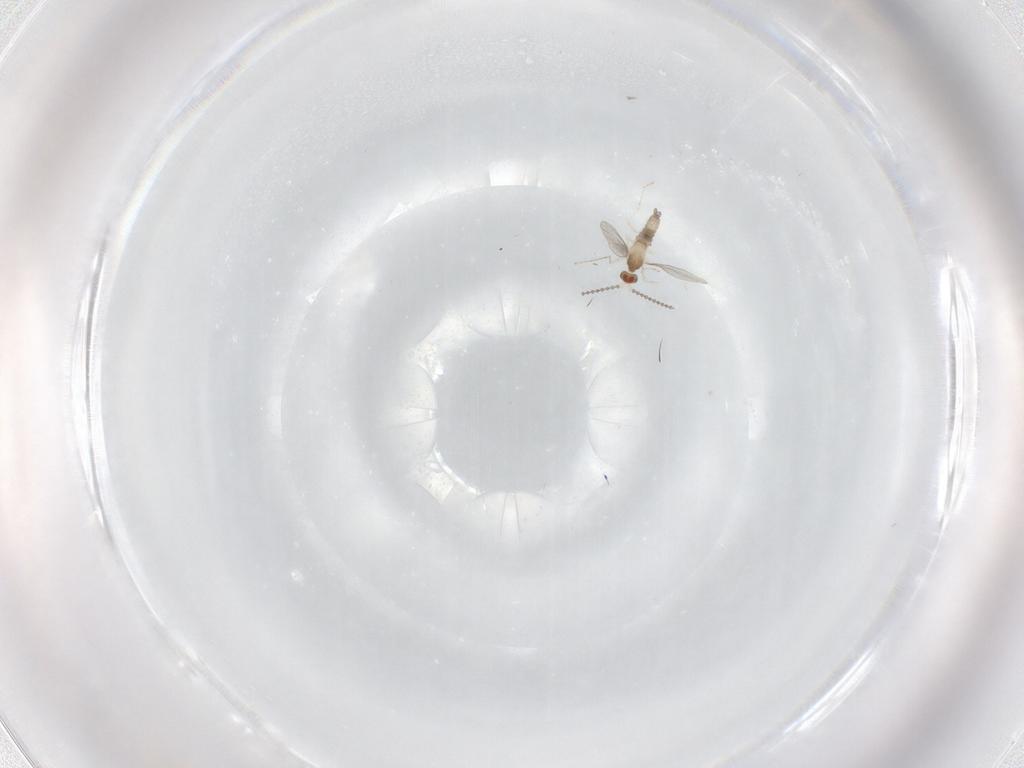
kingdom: Animalia
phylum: Arthropoda
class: Insecta
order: Diptera
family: Cecidomyiidae
